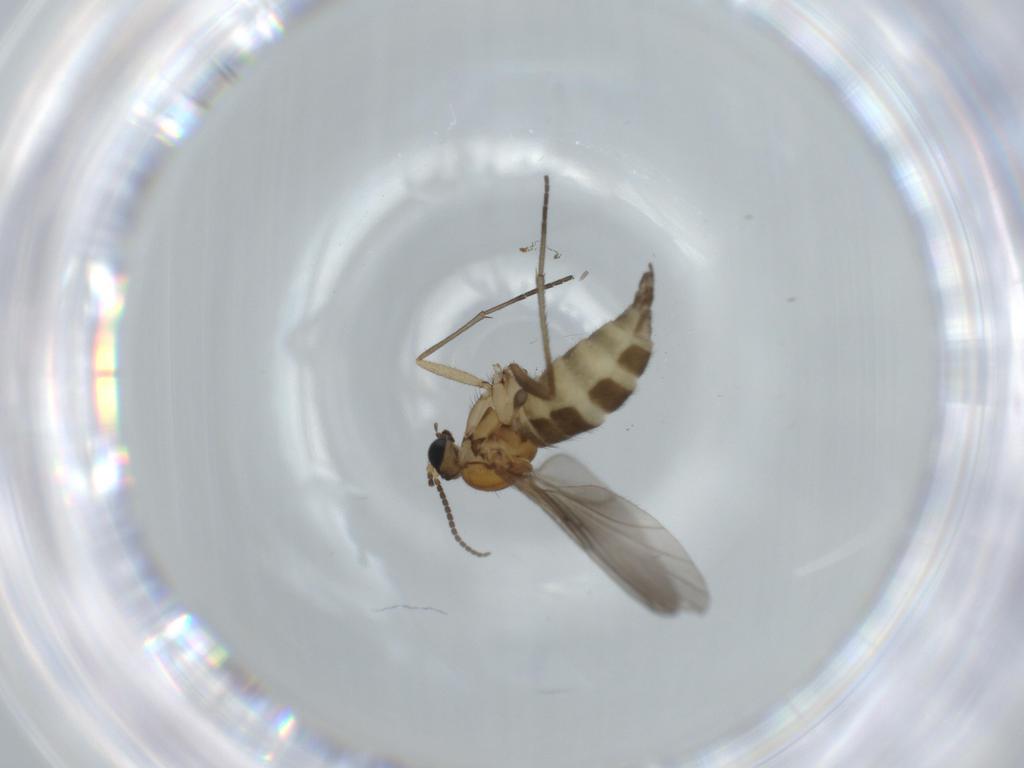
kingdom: Animalia
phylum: Arthropoda
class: Insecta
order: Diptera
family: Sciaridae
